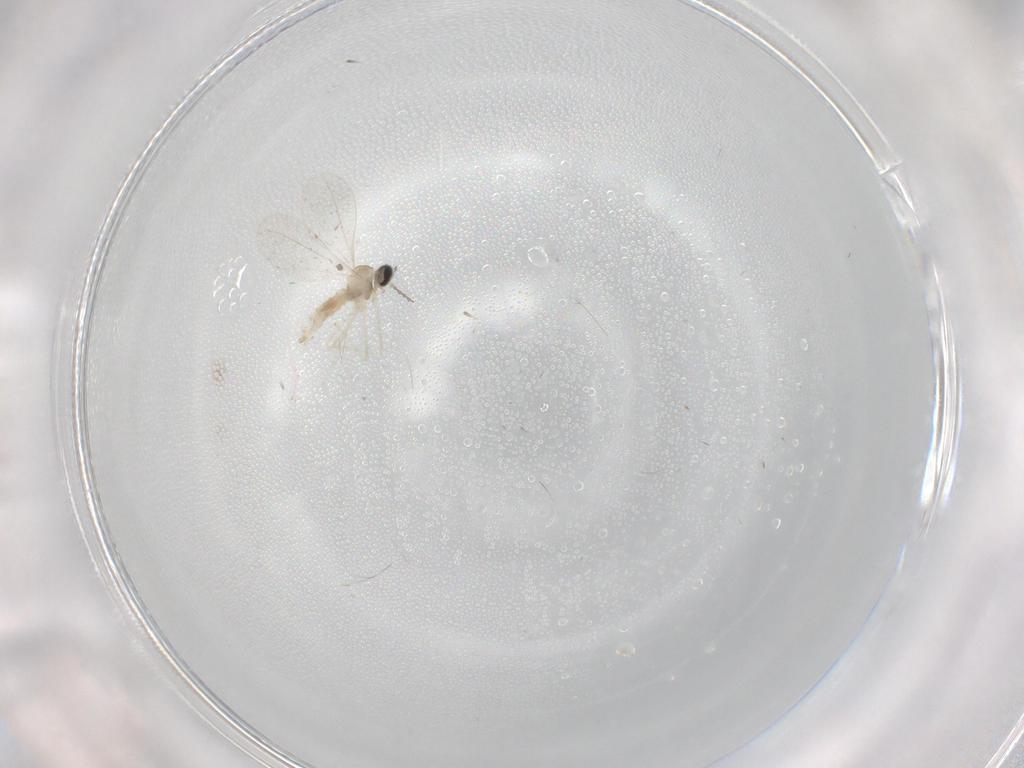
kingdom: Animalia
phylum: Arthropoda
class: Insecta
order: Diptera
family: Cecidomyiidae
